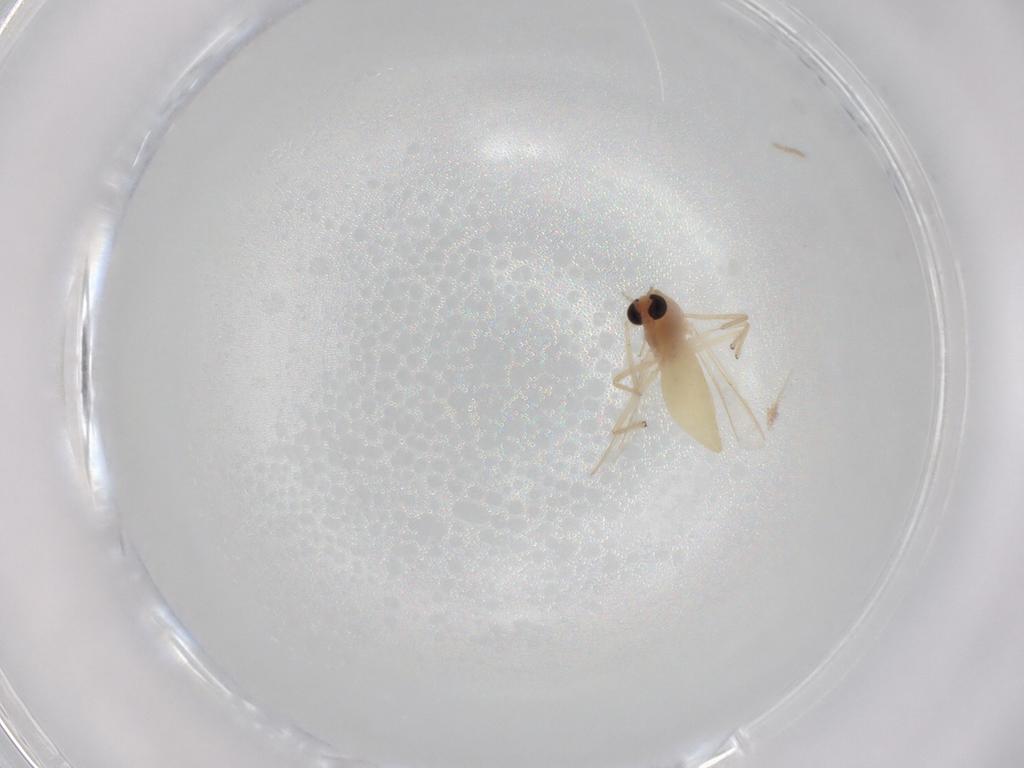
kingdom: Animalia
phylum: Arthropoda
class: Insecta
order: Diptera
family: Chironomidae
